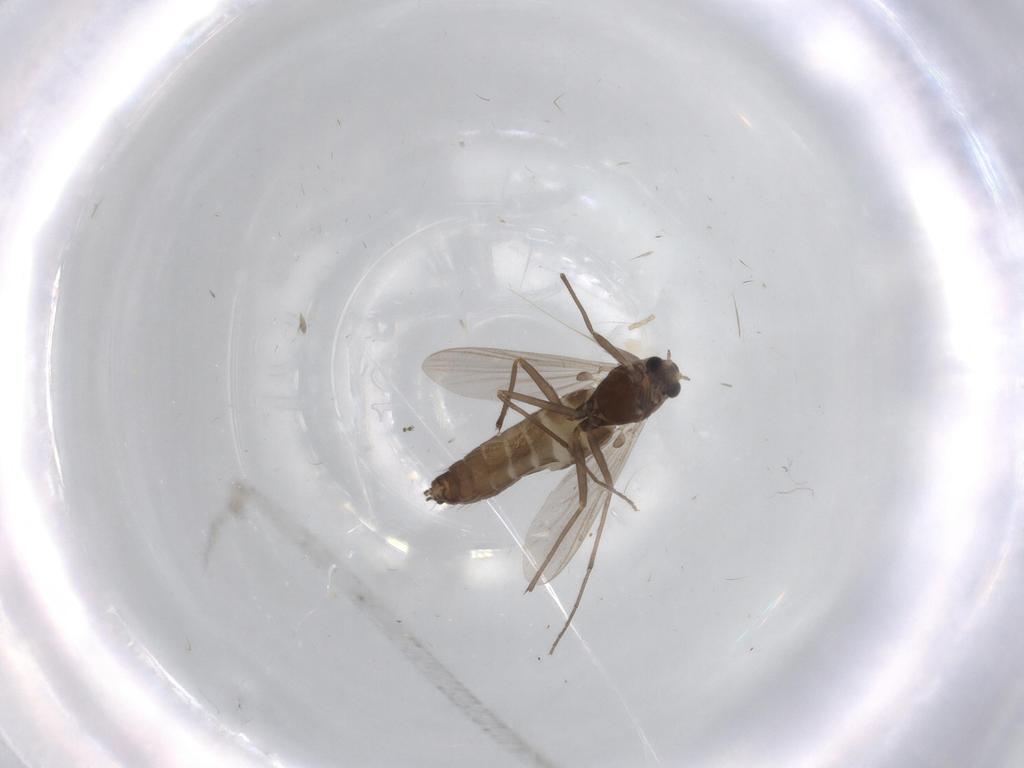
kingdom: Animalia
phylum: Arthropoda
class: Insecta
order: Diptera
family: Chironomidae
